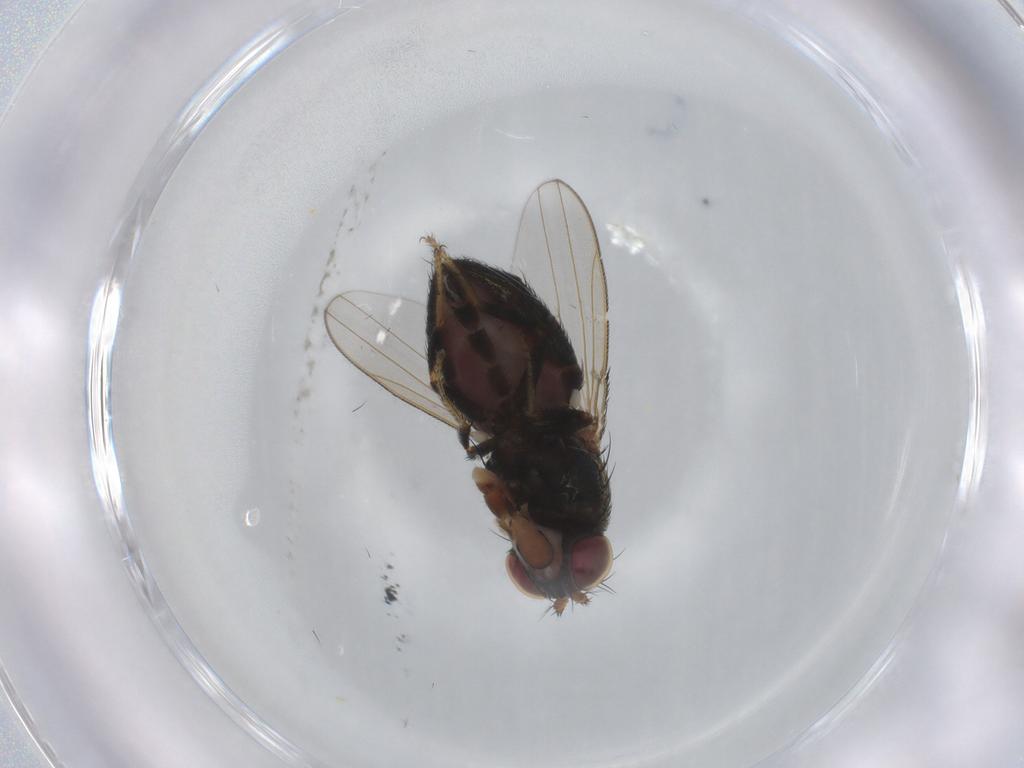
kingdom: Animalia
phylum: Arthropoda
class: Insecta
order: Diptera
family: Ephydridae
